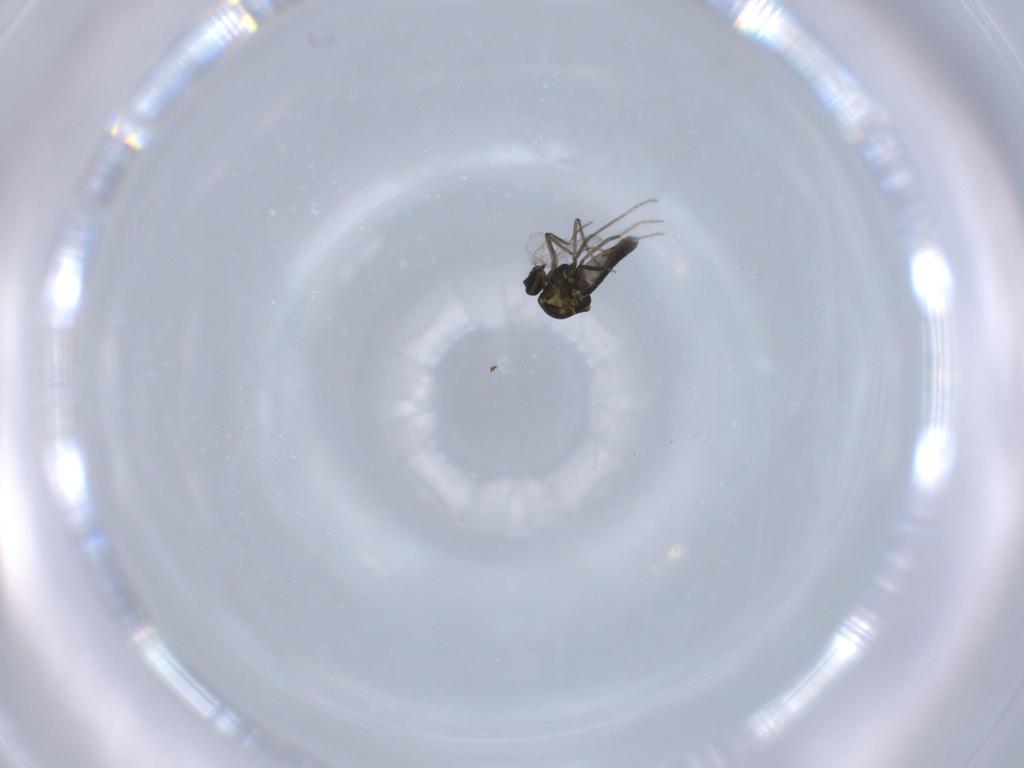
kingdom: Animalia
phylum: Arthropoda
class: Insecta
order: Diptera
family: Ceratopogonidae
